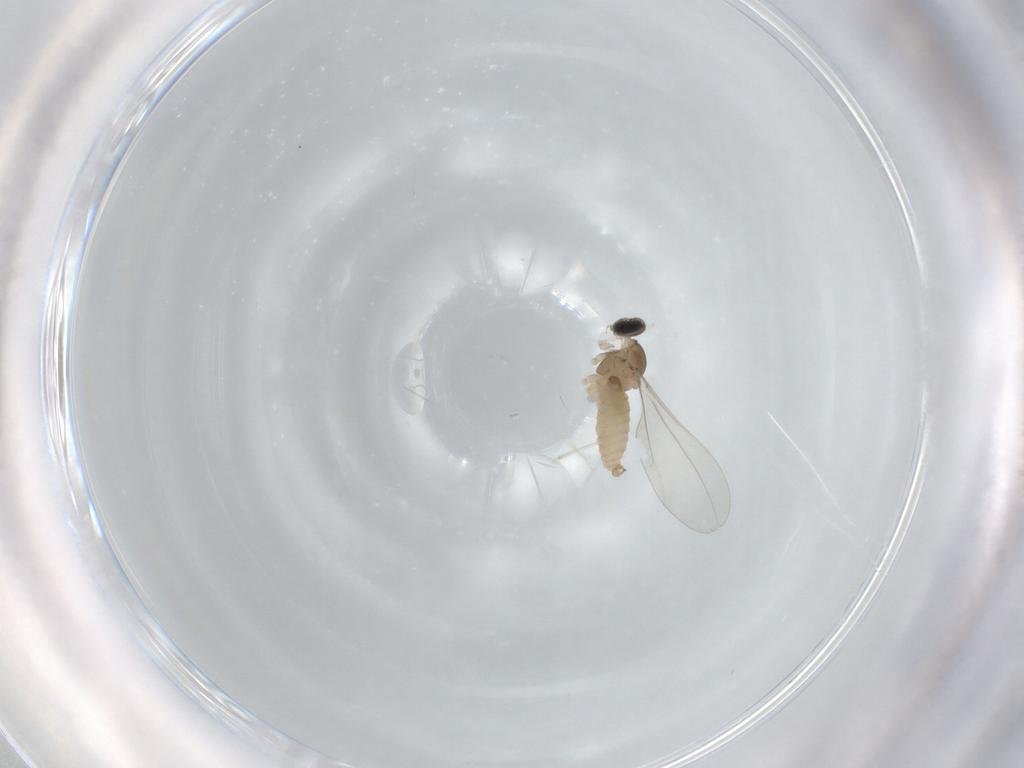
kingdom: Animalia
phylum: Arthropoda
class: Insecta
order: Diptera
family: Cecidomyiidae
